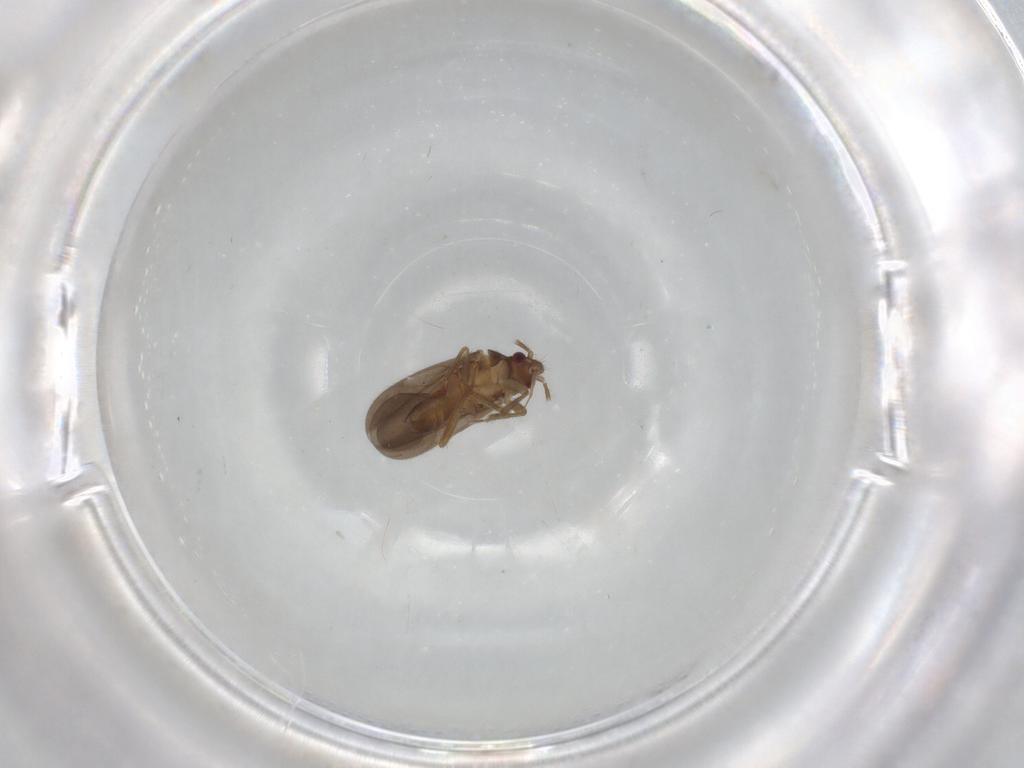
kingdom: Animalia
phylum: Arthropoda
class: Insecta
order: Hemiptera
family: Ceratocombidae
